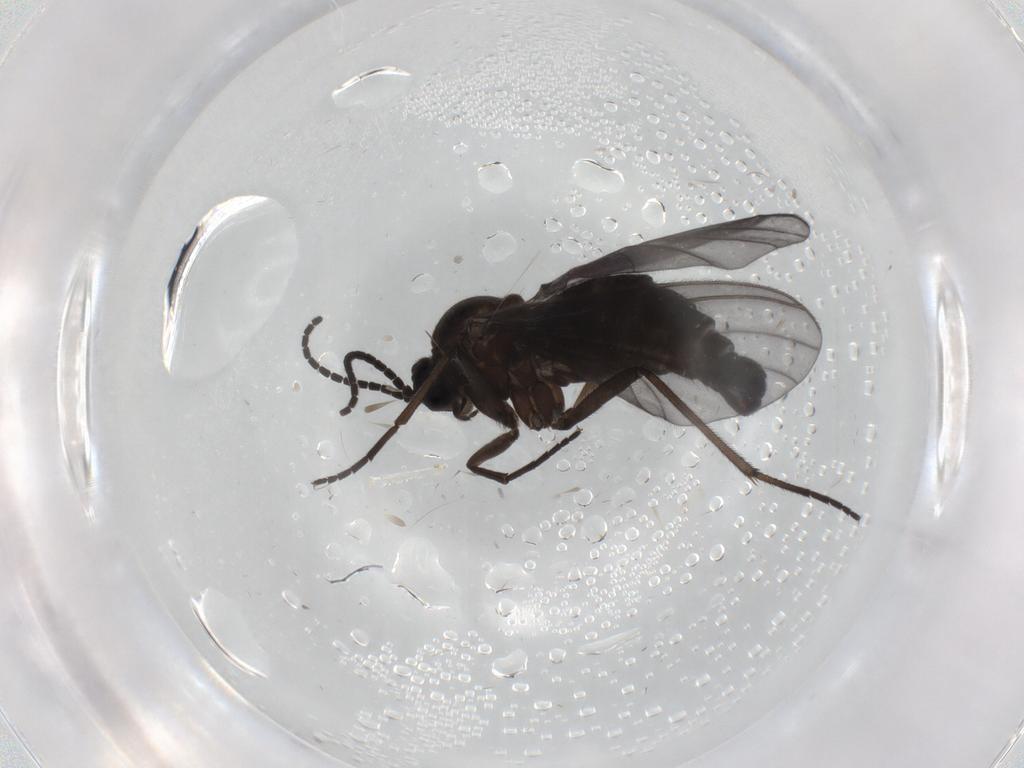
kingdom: Animalia
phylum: Arthropoda
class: Insecta
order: Diptera
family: Sciaridae
